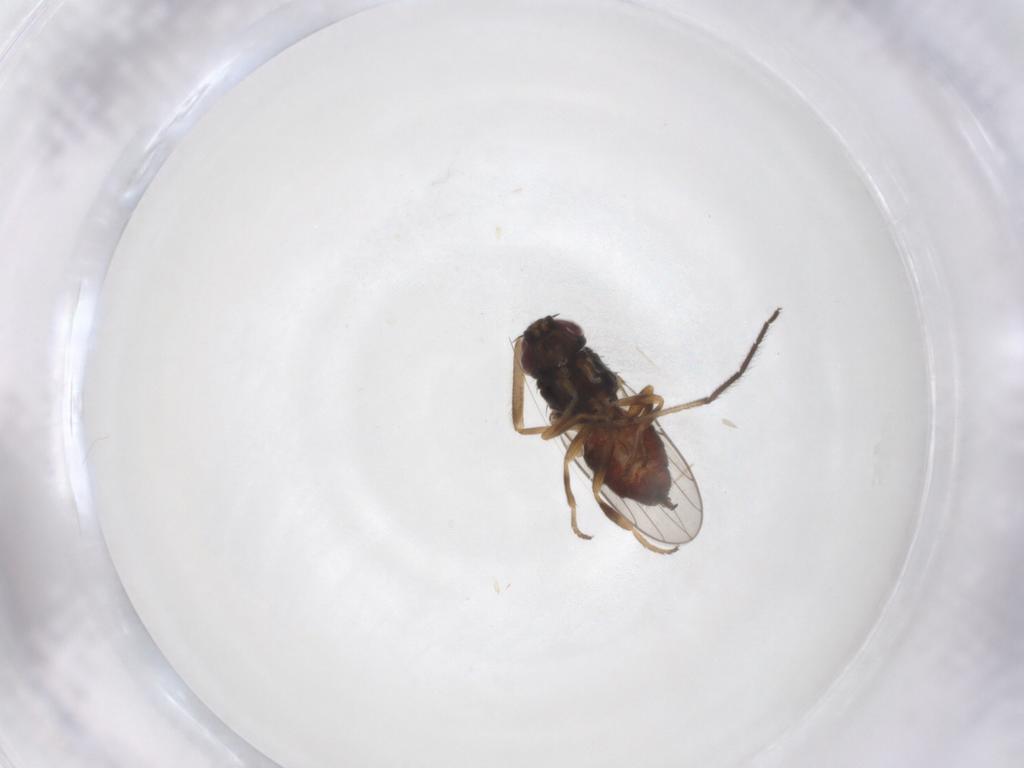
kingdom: Animalia
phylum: Arthropoda
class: Insecta
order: Diptera
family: Chloropidae
